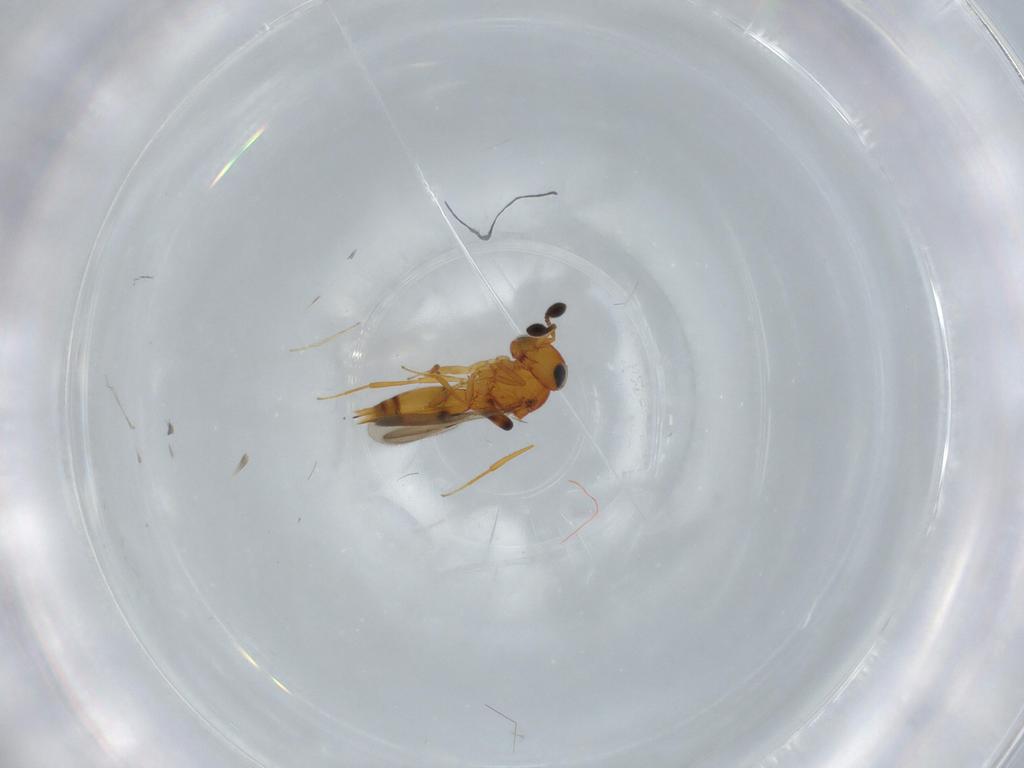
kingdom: Animalia
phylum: Arthropoda
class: Insecta
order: Hymenoptera
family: Scelionidae
